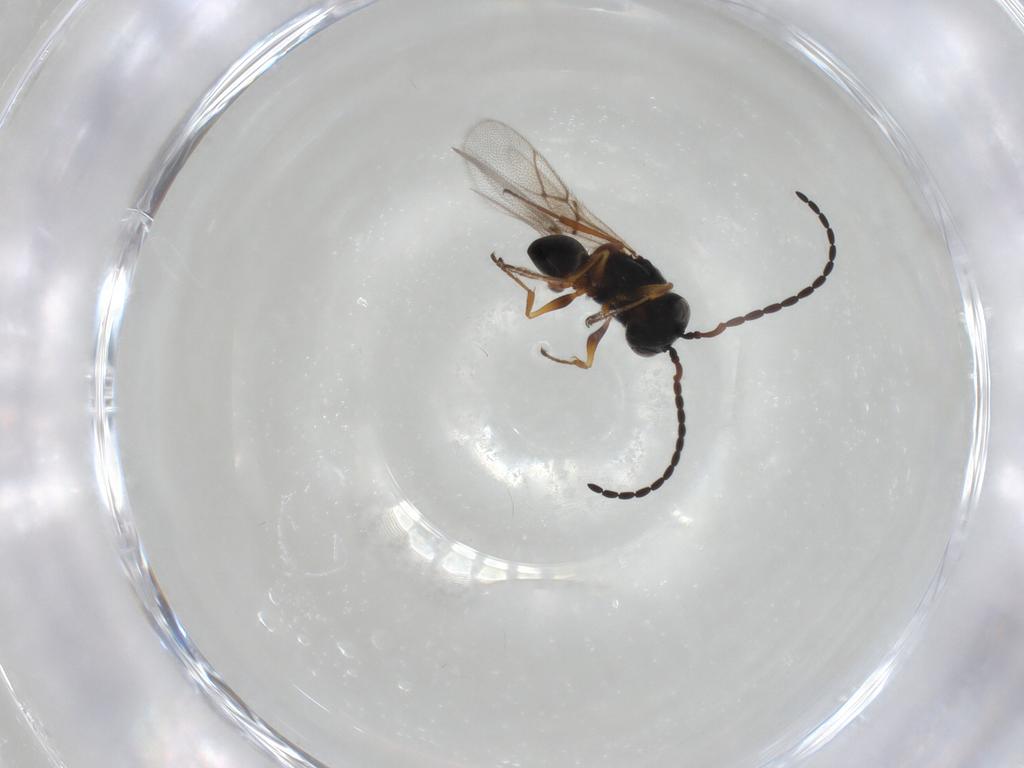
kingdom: Animalia
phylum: Arthropoda
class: Insecta
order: Hymenoptera
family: Figitidae
